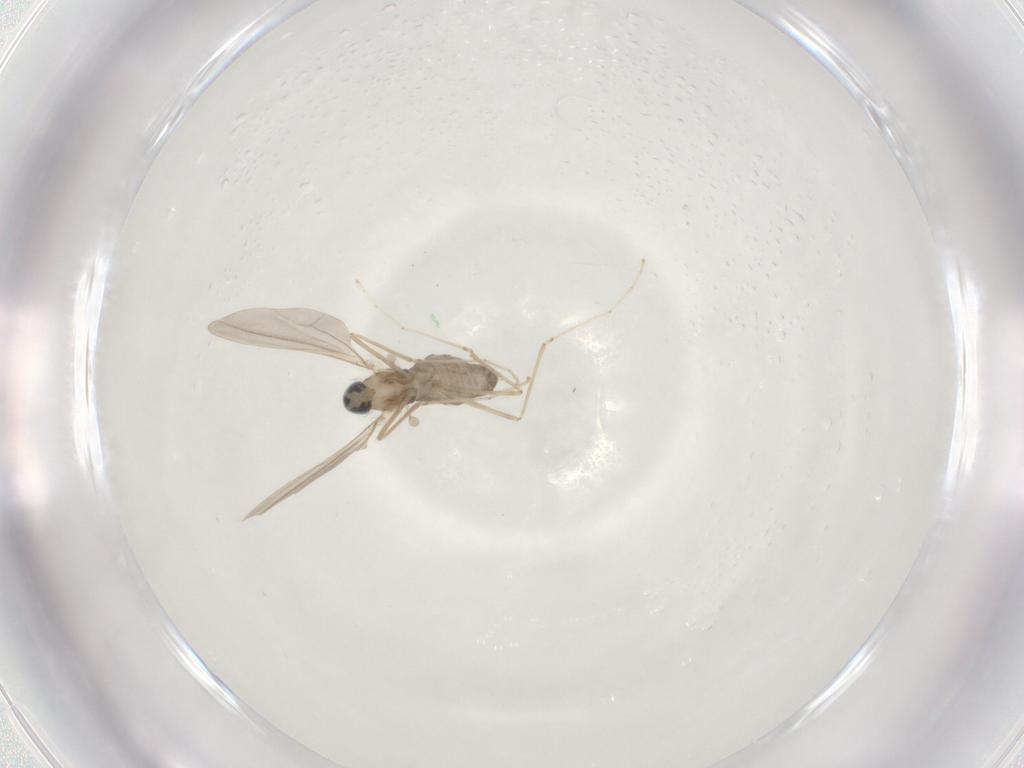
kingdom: Animalia
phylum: Arthropoda
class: Insecta
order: Diptera
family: Cecidomyiidae
